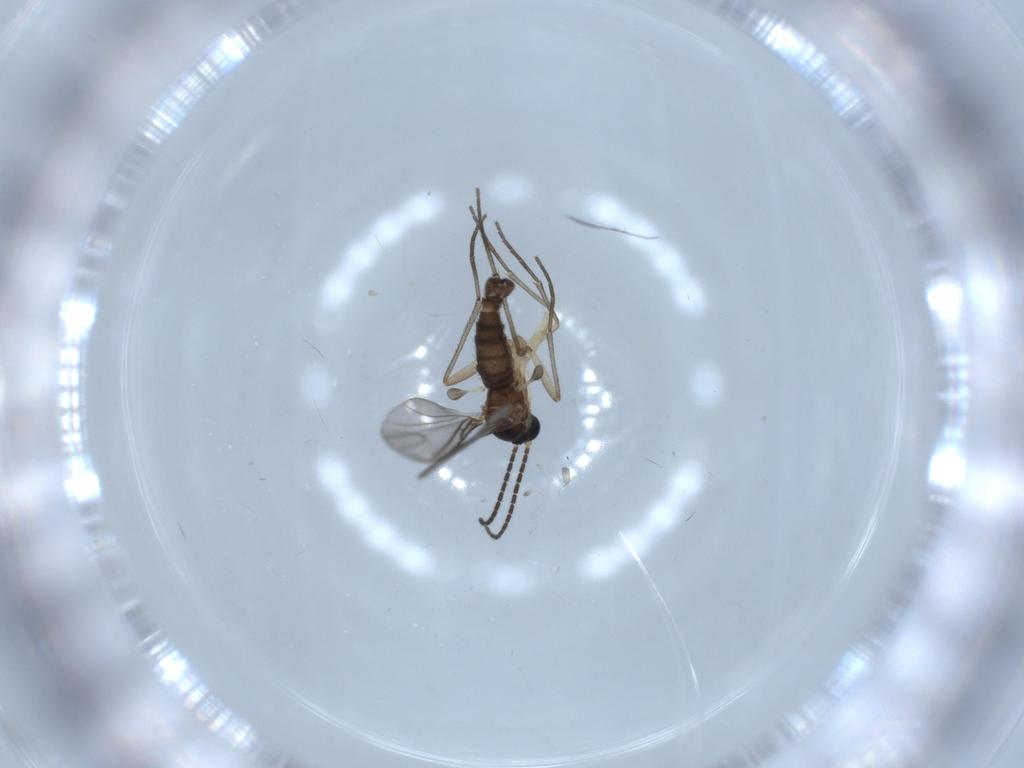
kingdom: Animalia
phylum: Arthropoda
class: Insecta
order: Diptera
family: Sciaridae
